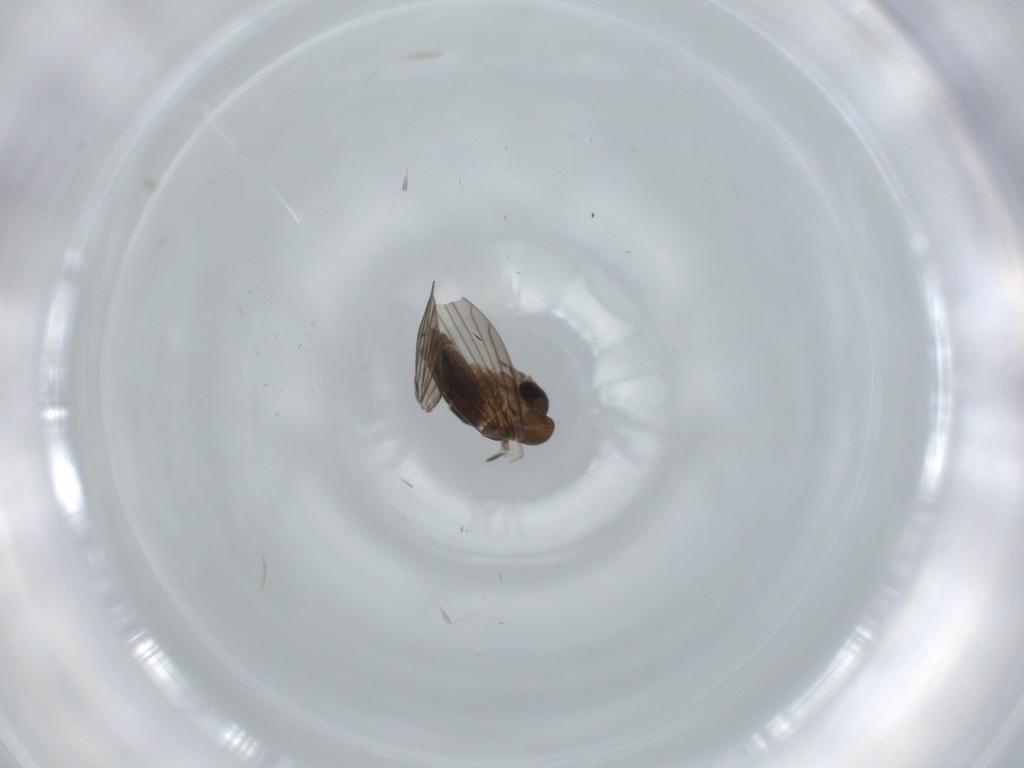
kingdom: Animalia
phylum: Arthropoda
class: Insecta
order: Diptera
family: Psychodidae
